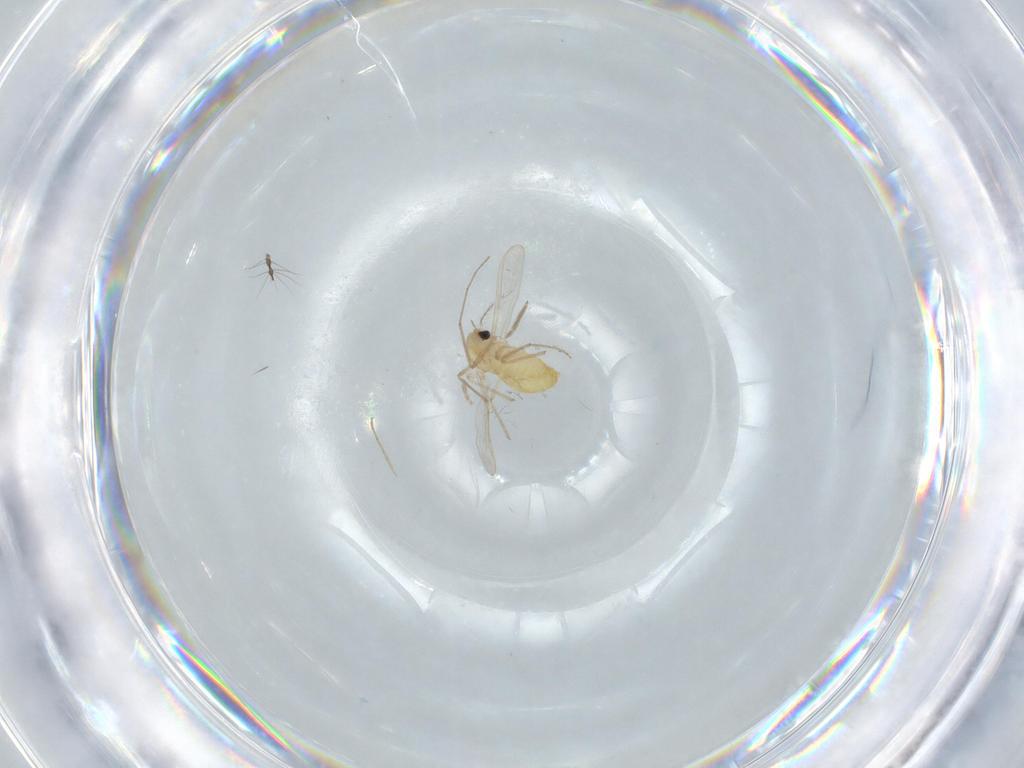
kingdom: Animalia
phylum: Arthropoda
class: Insecta
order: Diptera
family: Chironomidae
